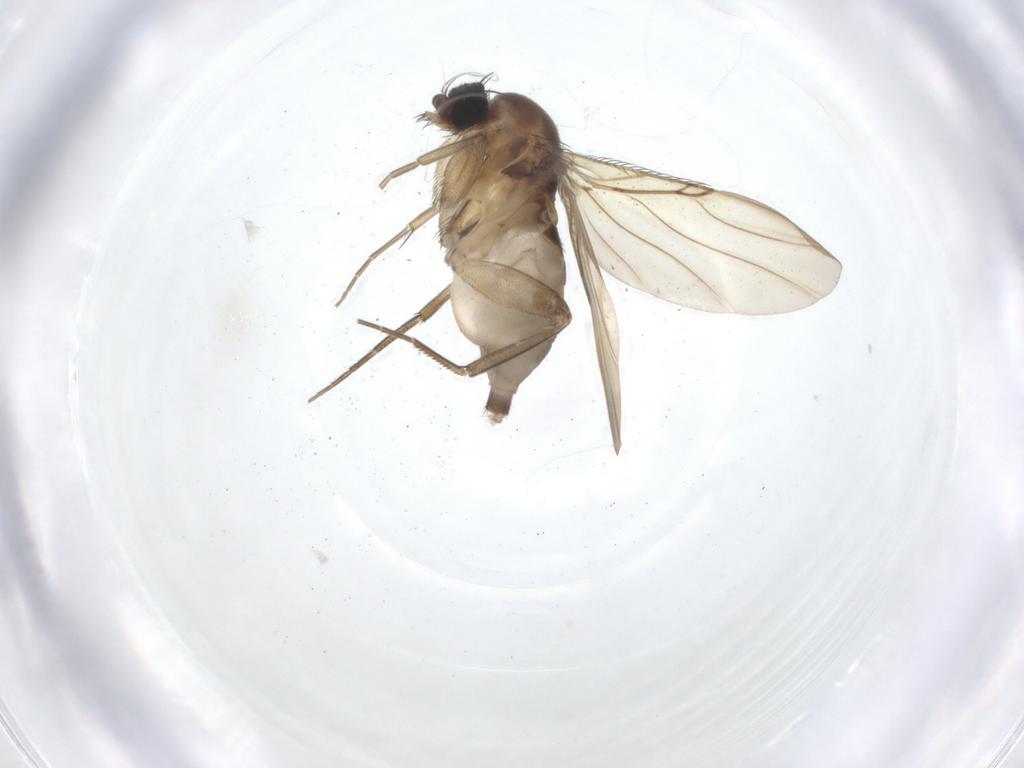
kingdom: Animalia
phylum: Arthropoda
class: Insecta
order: Diptera
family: Phoridae
